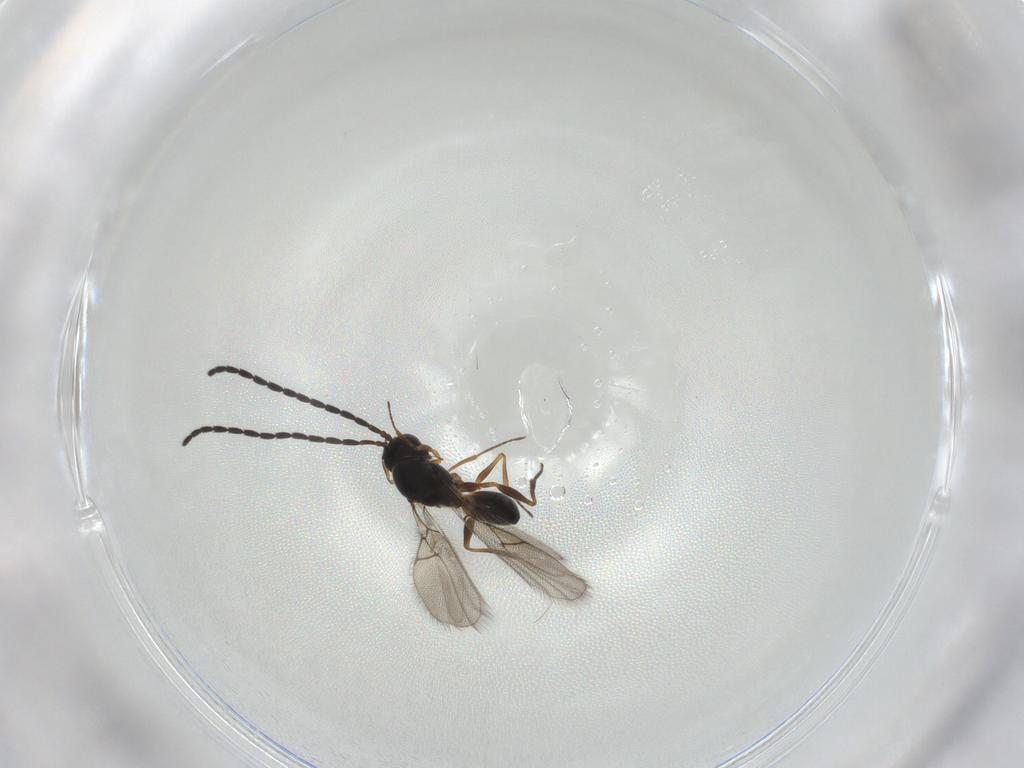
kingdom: Animalia
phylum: Arthropoda
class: Insecta
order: Hymenoptera
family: Figitidae
